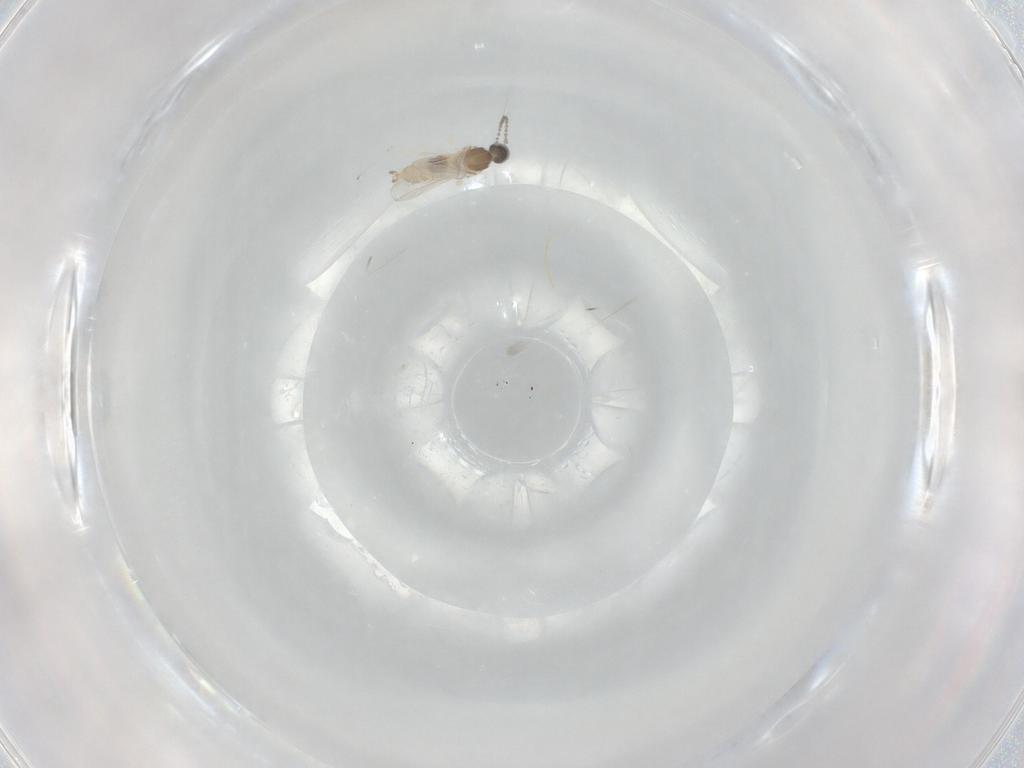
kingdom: Animalia
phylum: Arthropoda
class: Insecta
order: Diptera
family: Cecidomyiidae
